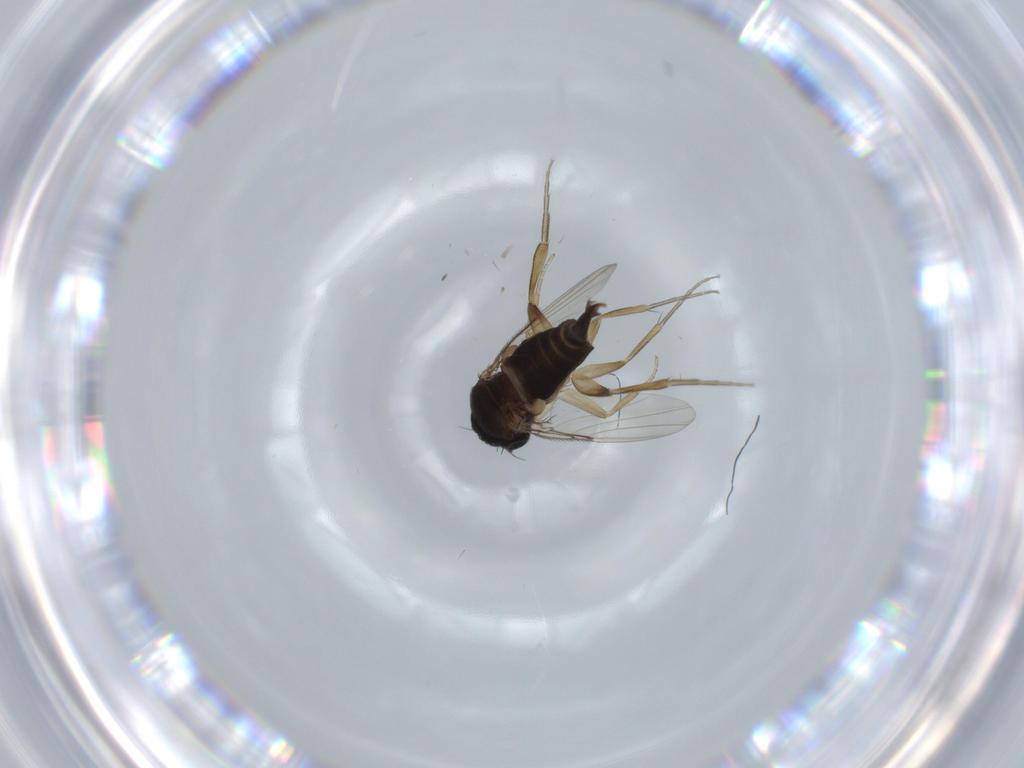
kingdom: Animalia
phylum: Arthropoda
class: Insecta
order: Diptera
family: Phoridae
